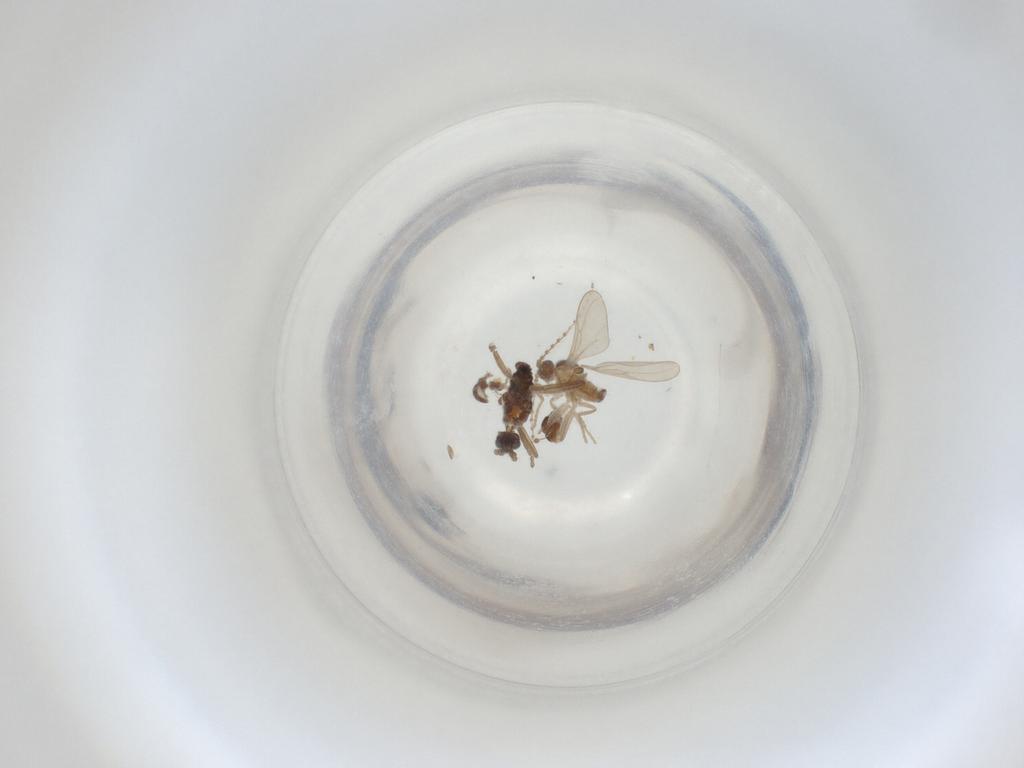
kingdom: Animalia
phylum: Arthropoda
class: Insecta
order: Diptera
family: Cecidomyiidae
